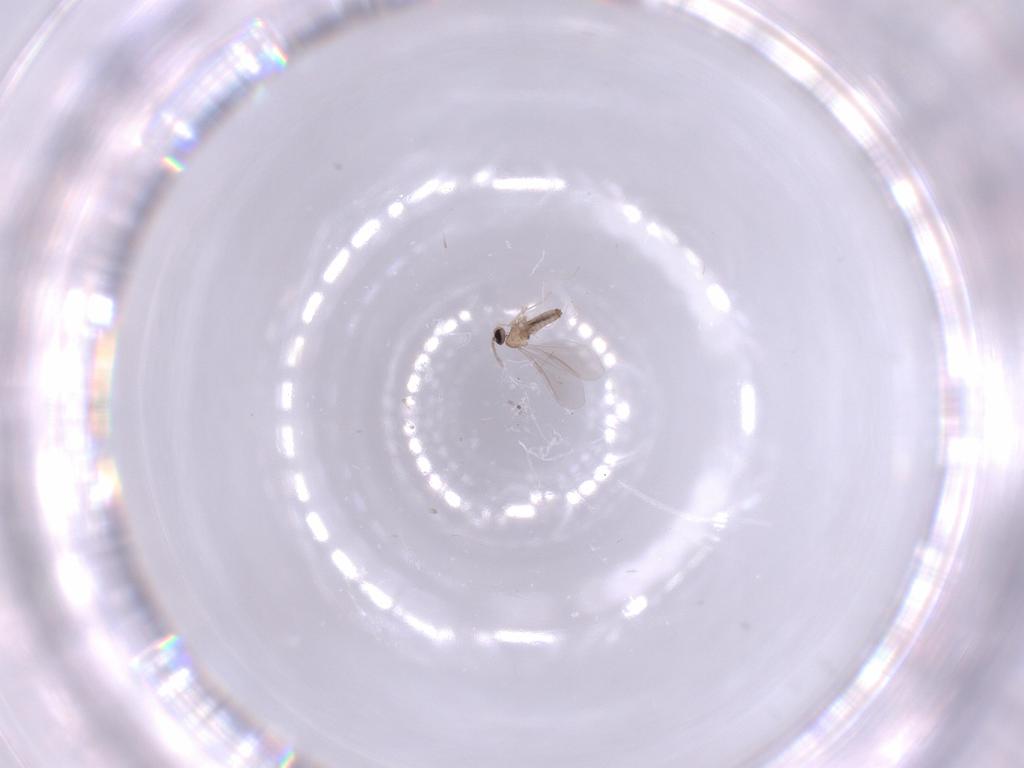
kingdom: Animalia
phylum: Arthropoda
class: Insecta
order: Diptera
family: Cecidomyiidae
